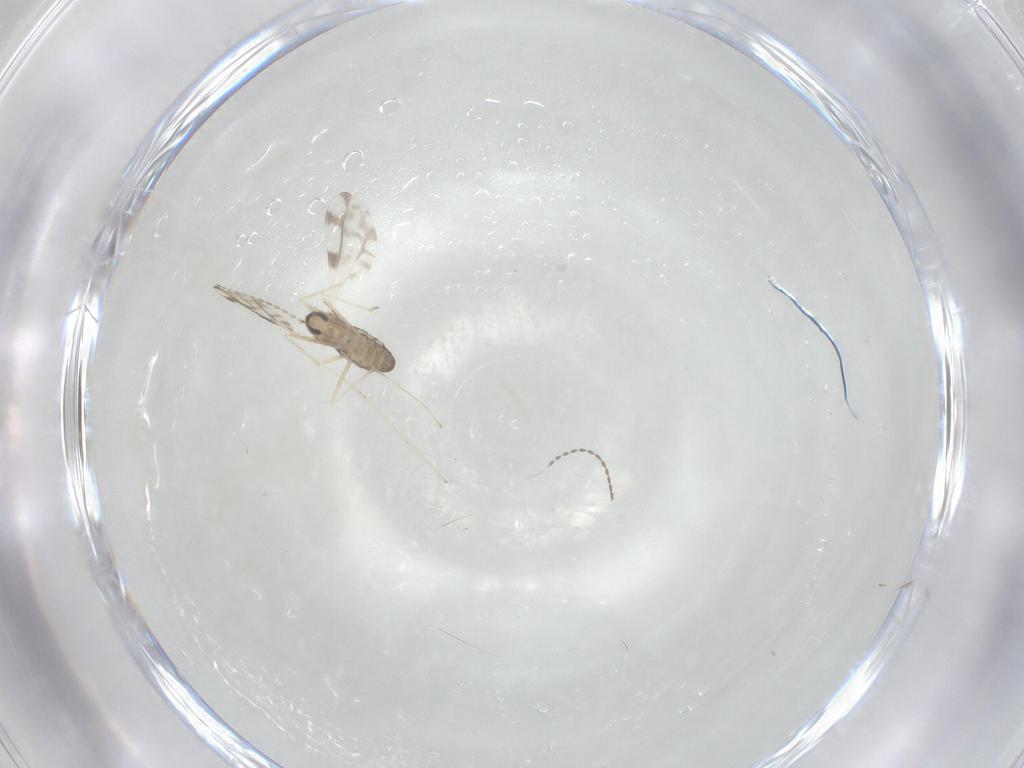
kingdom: Animalia
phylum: Arthropoda
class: Insecta
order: Diptera
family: Cecidomyiidae
